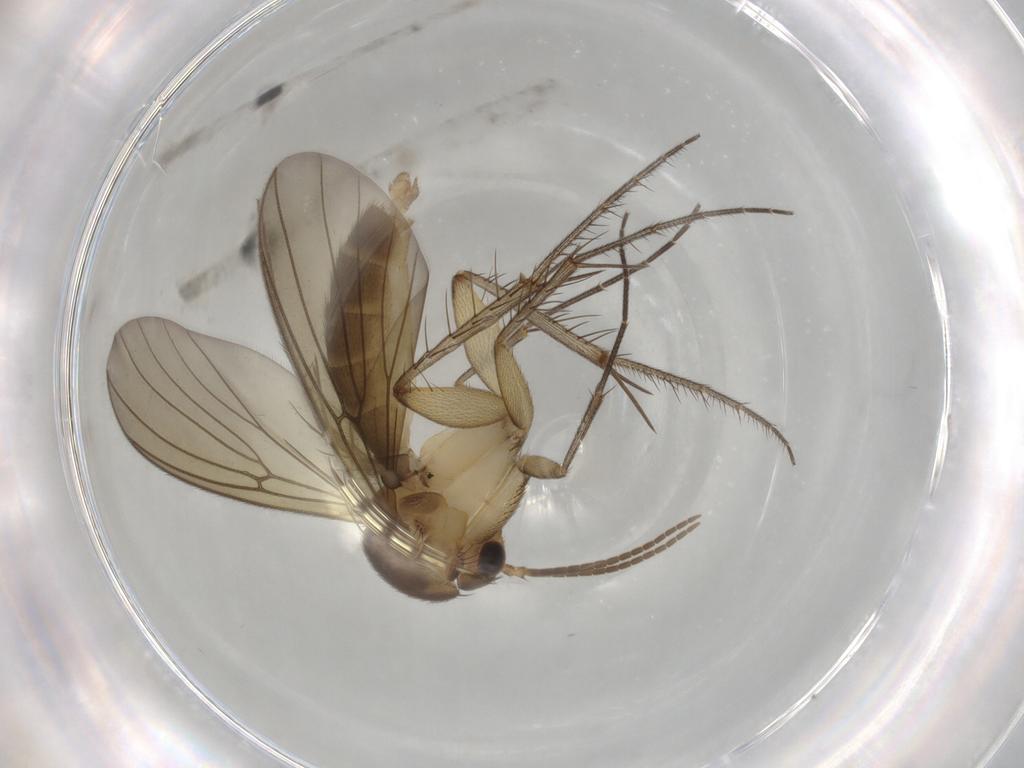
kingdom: Animalia
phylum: Arthropoda
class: Insecta
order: Diptera
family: Mycetophilidae
